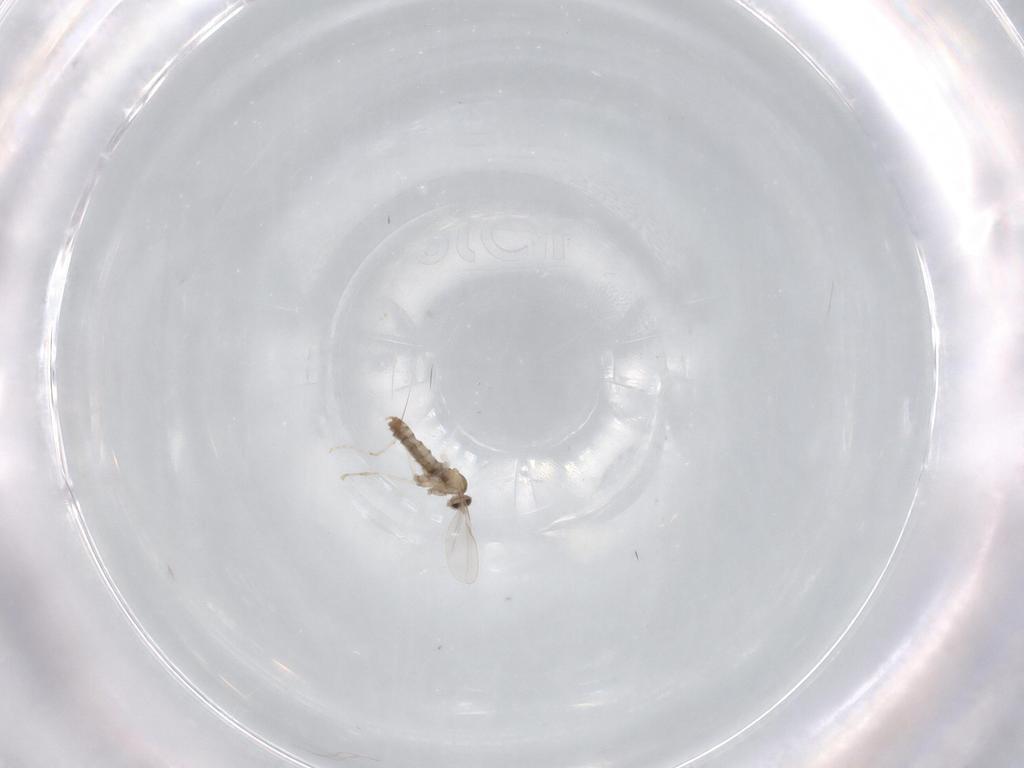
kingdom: Animalia
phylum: Arthropoda
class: Insecta
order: Diptera
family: Cecidomyiidae
